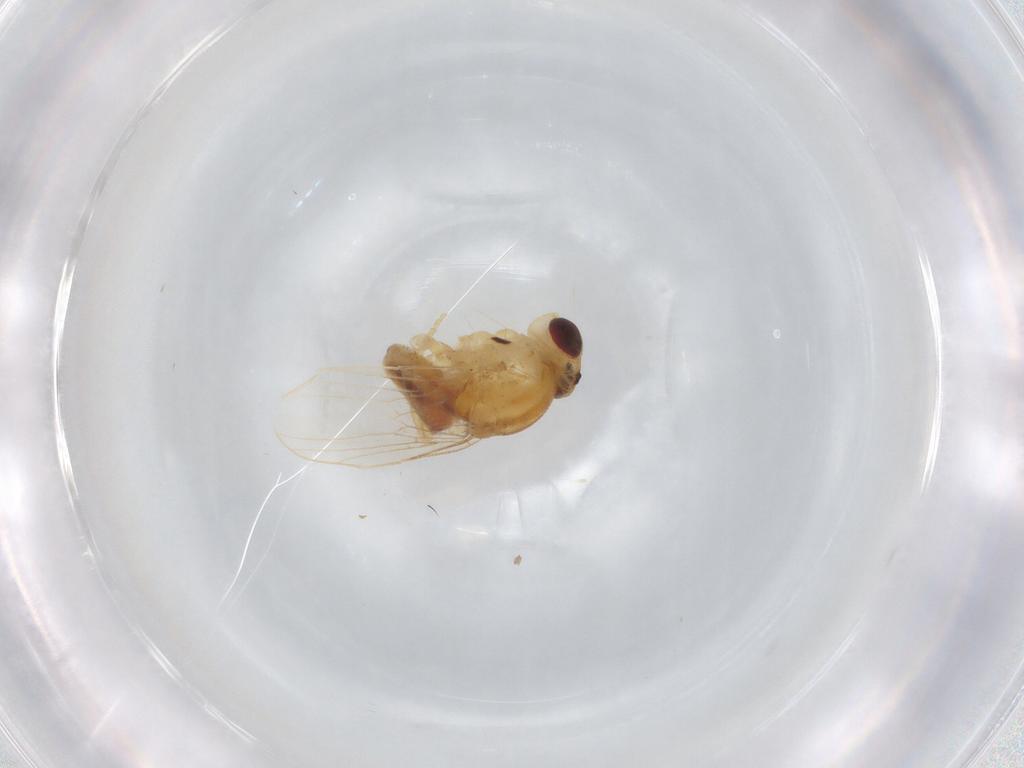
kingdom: Animalia
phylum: Arthropoda
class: Insecta
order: Diptera
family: Chloropidae
